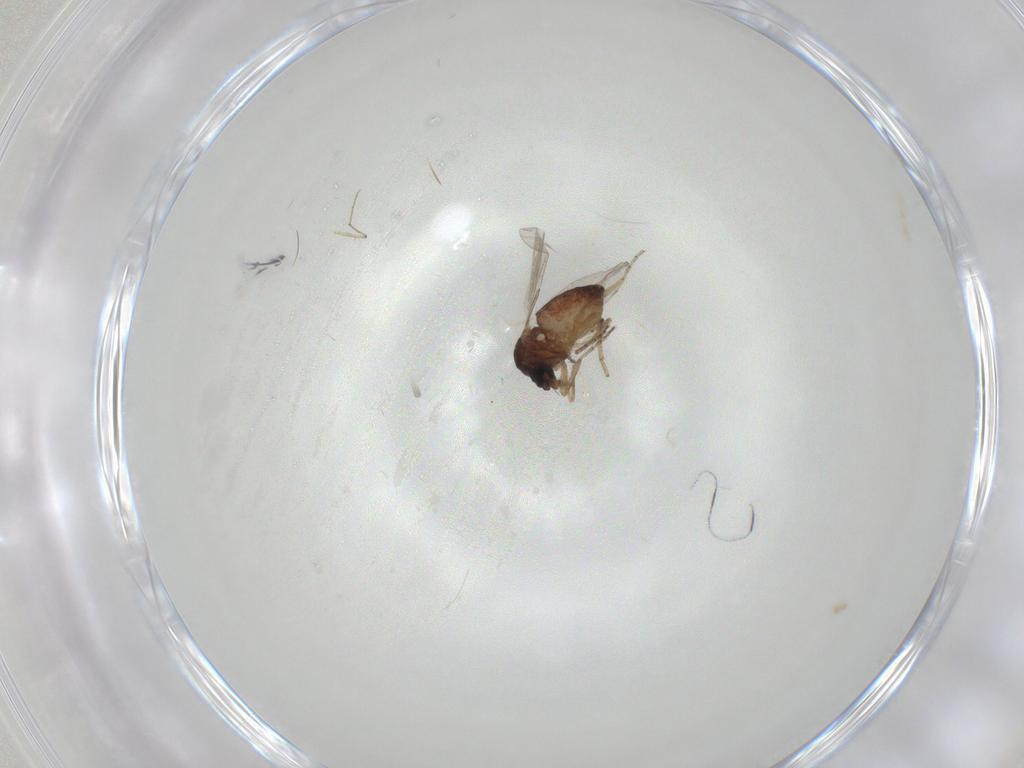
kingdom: Animalia
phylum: Arthropoda
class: Insecta
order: Diptera
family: Ceratopogonidae
